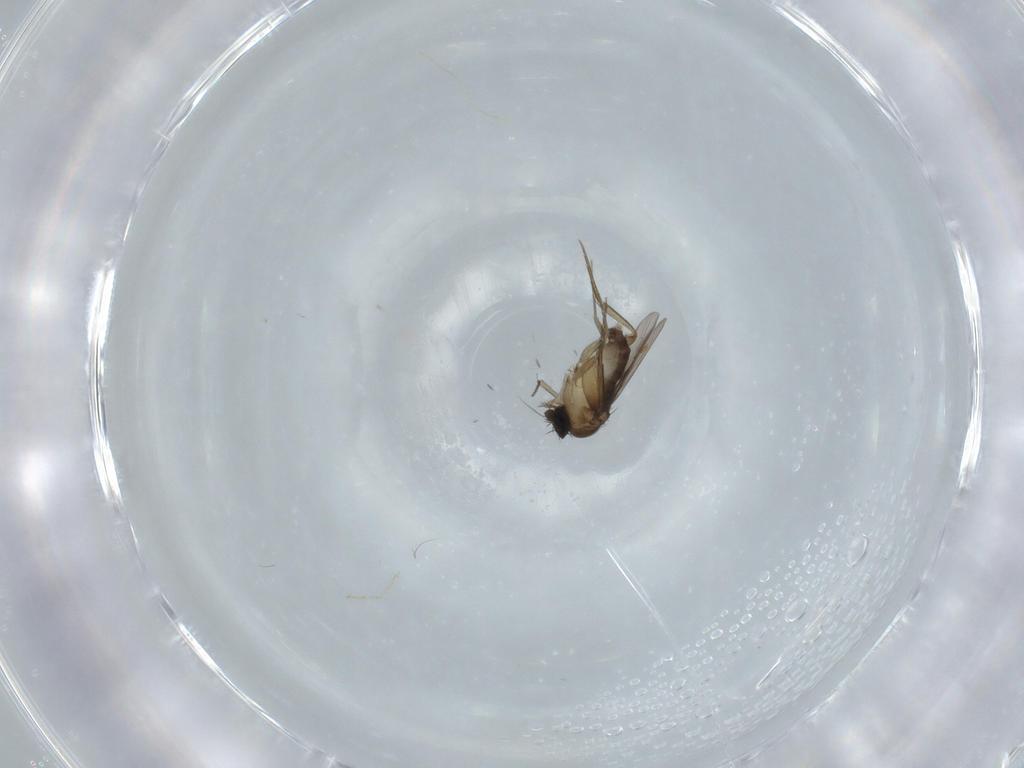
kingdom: Animalia
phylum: Arthropoda
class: Insecta
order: Diptera
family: Phoridae
